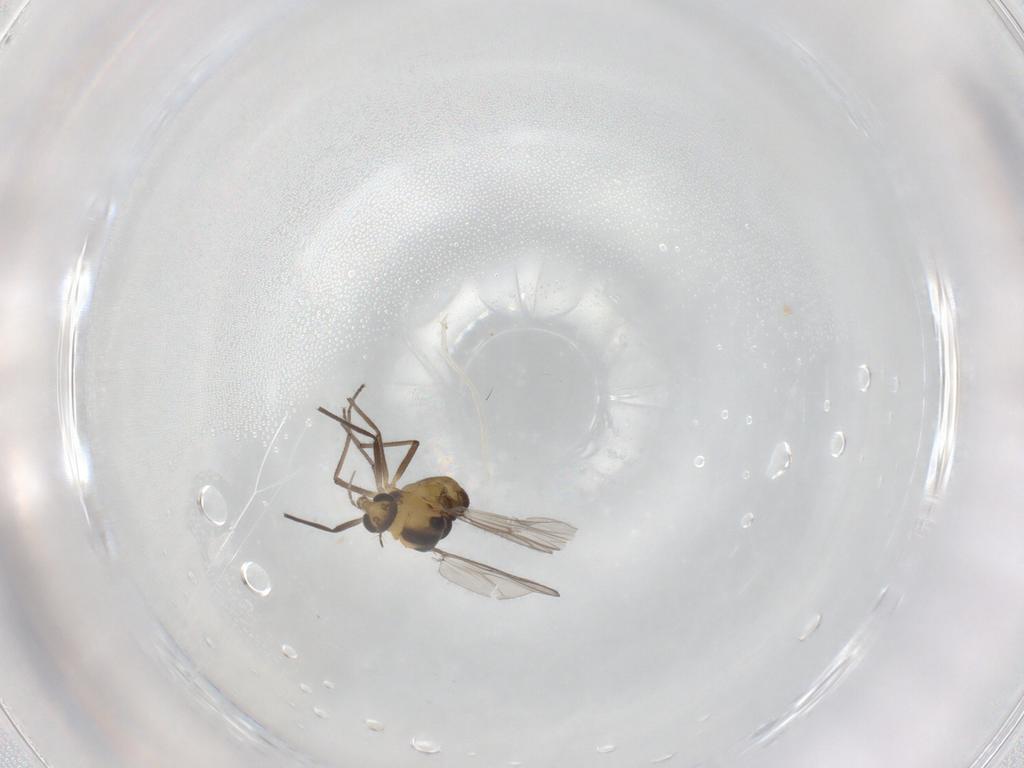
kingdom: Animalia
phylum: Arthropoda
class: Insecta
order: Diptera
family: Chironomidae
